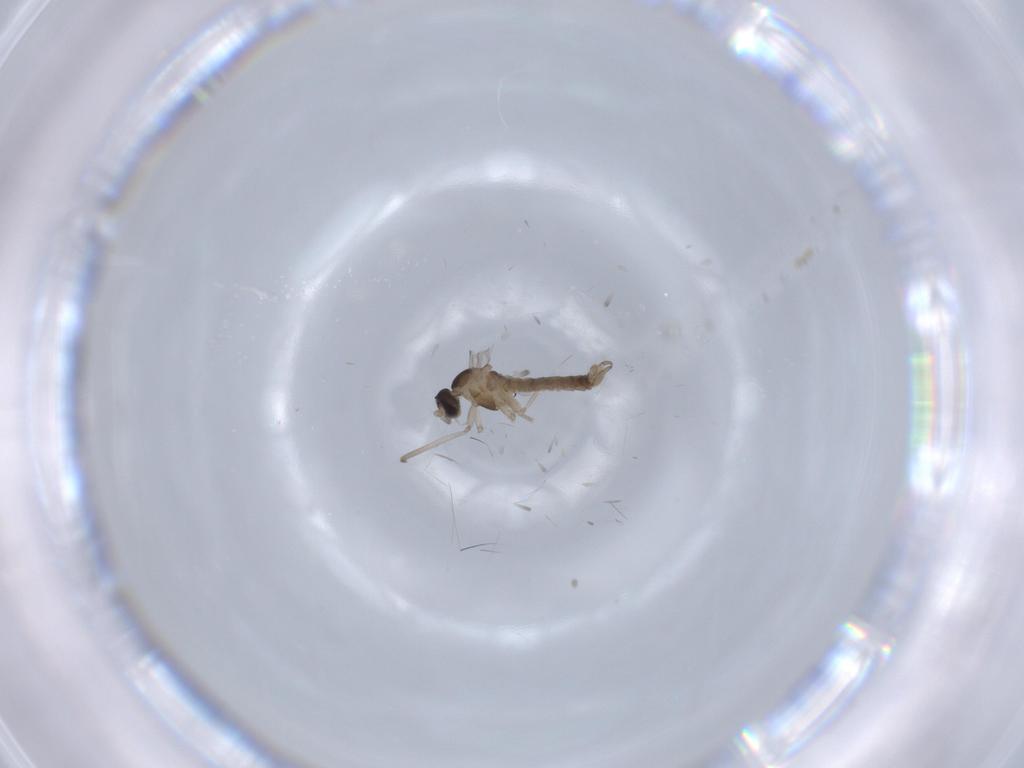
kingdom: Animalia
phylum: Arthropoda
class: Insecta
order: Diptera
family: Cecidomyiidae
